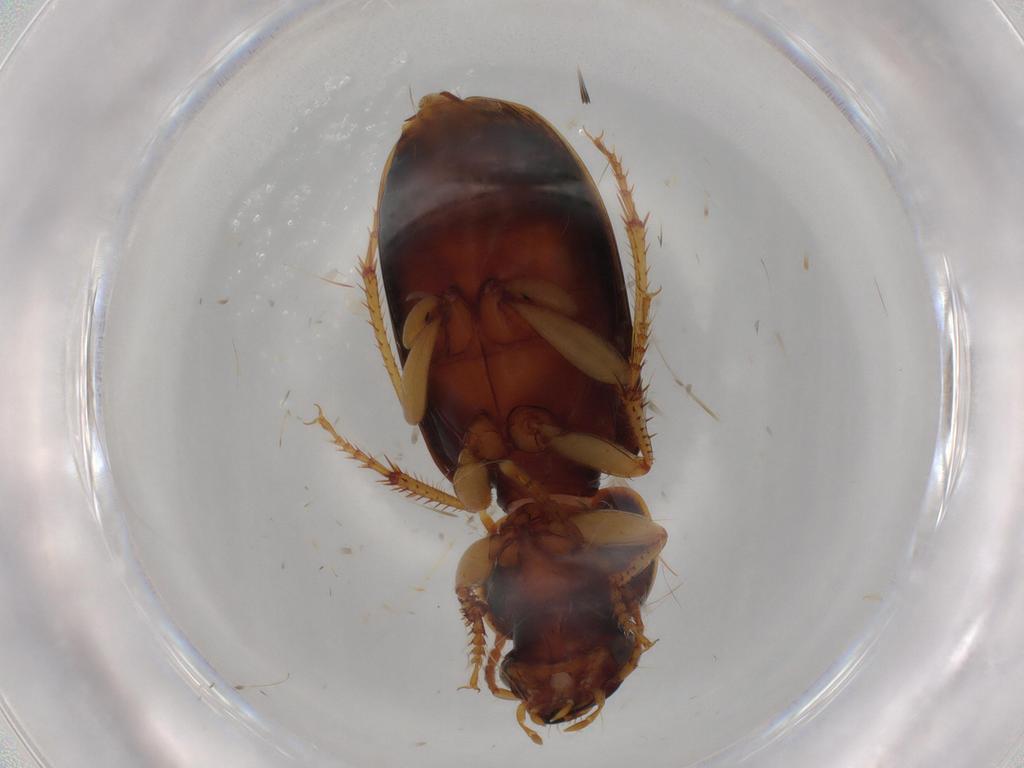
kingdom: Animalia
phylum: Arthropoda
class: Insecta
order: Coleoptera
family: Carabidae
